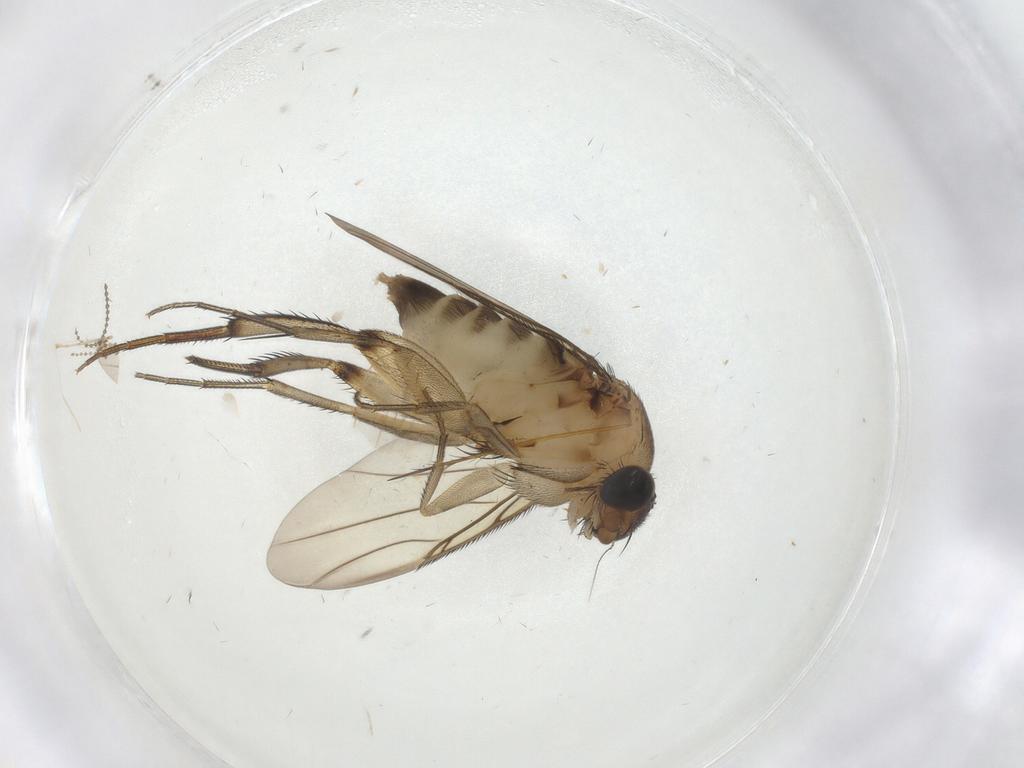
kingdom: Animalia
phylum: Arthropoda
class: Insecta
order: Diptera
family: Phoridae
